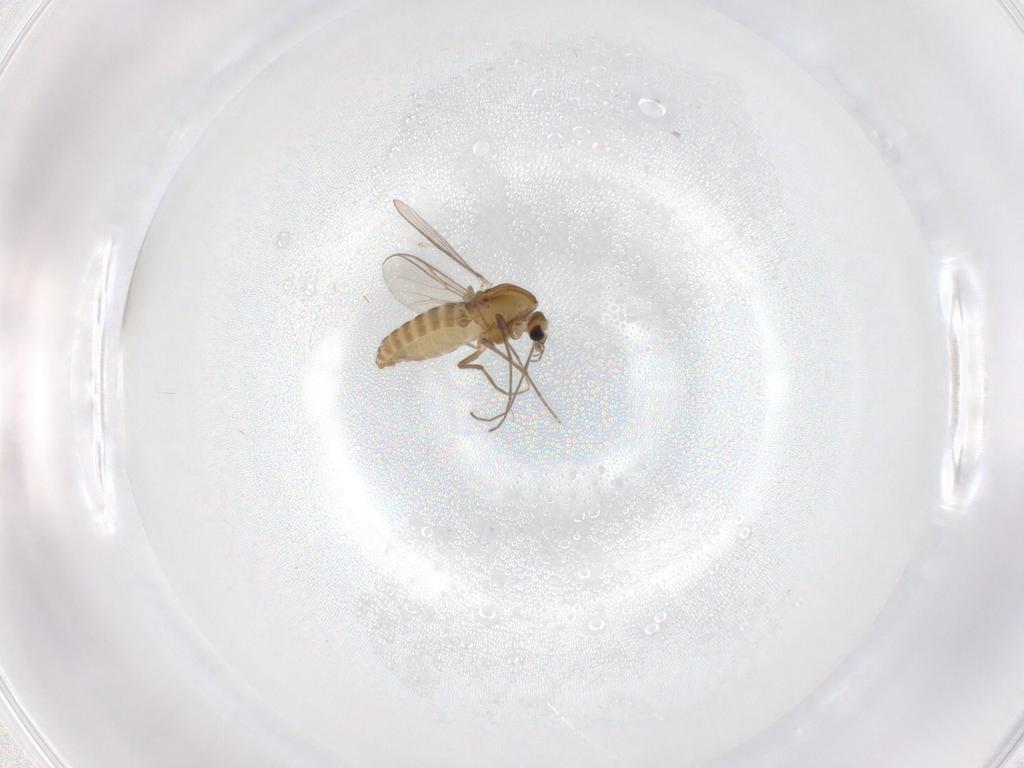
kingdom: Animalia
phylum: Arthropoda
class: Insecta
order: Diptera
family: Chironomidae
